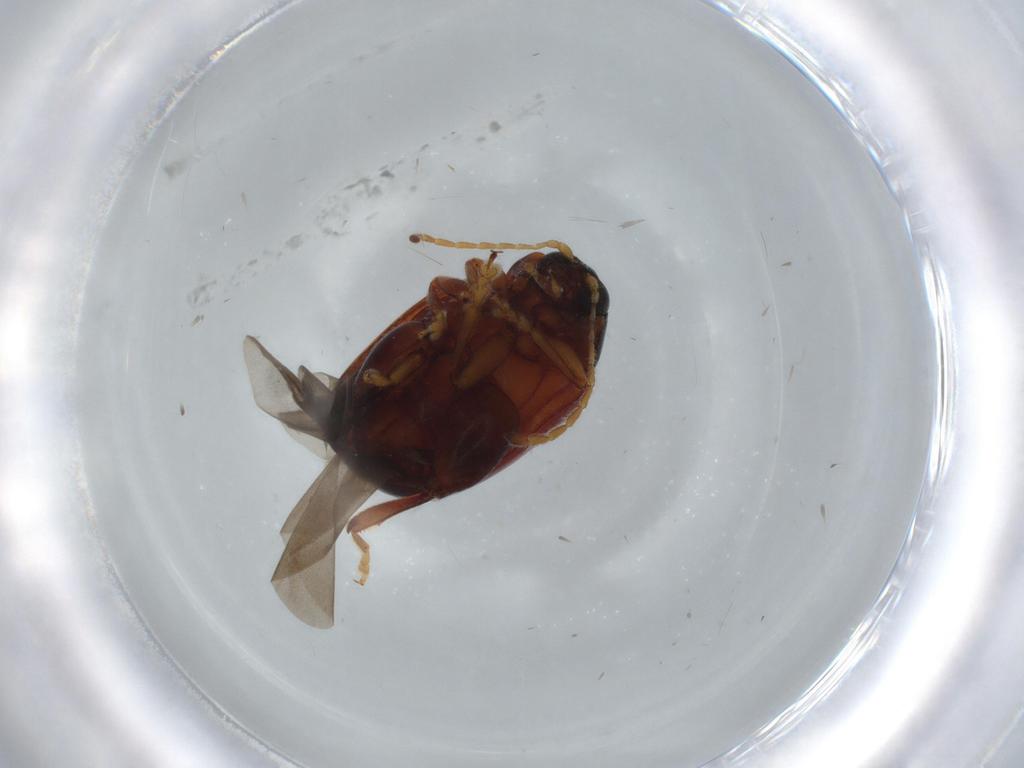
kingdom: Animalia
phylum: Arthropoda
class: Insecta
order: Coleoptera
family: Chrysomelidae
